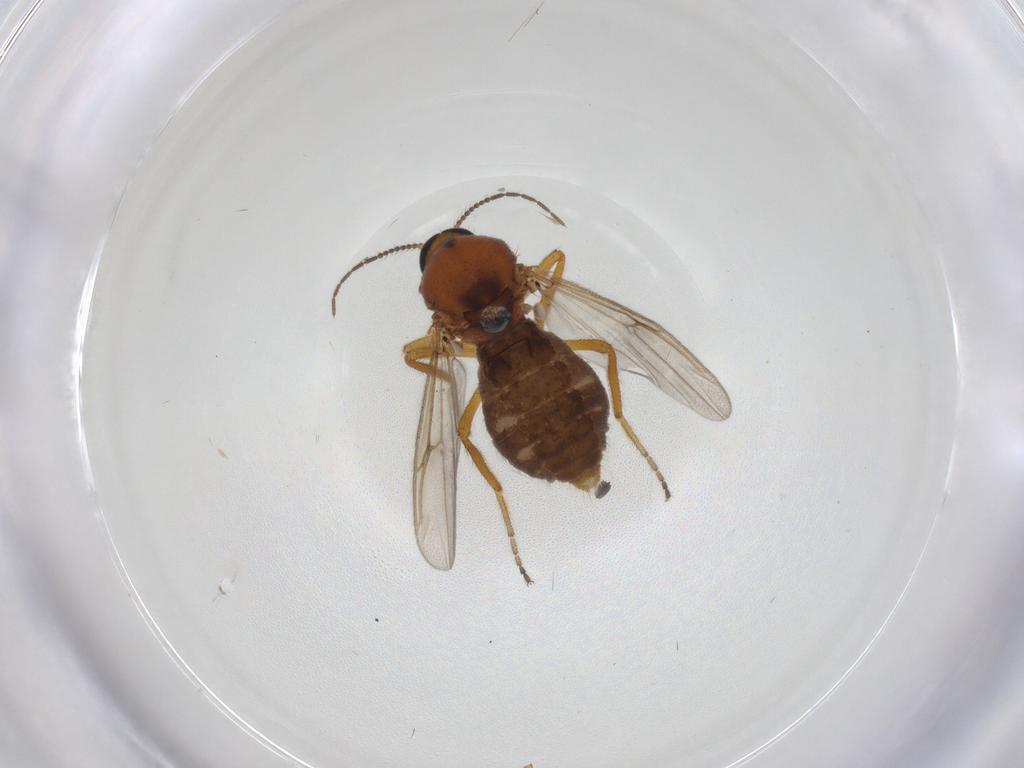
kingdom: Animalia
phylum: Arthropoda
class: Insecta
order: Diptera
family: Ceratopogonidae
